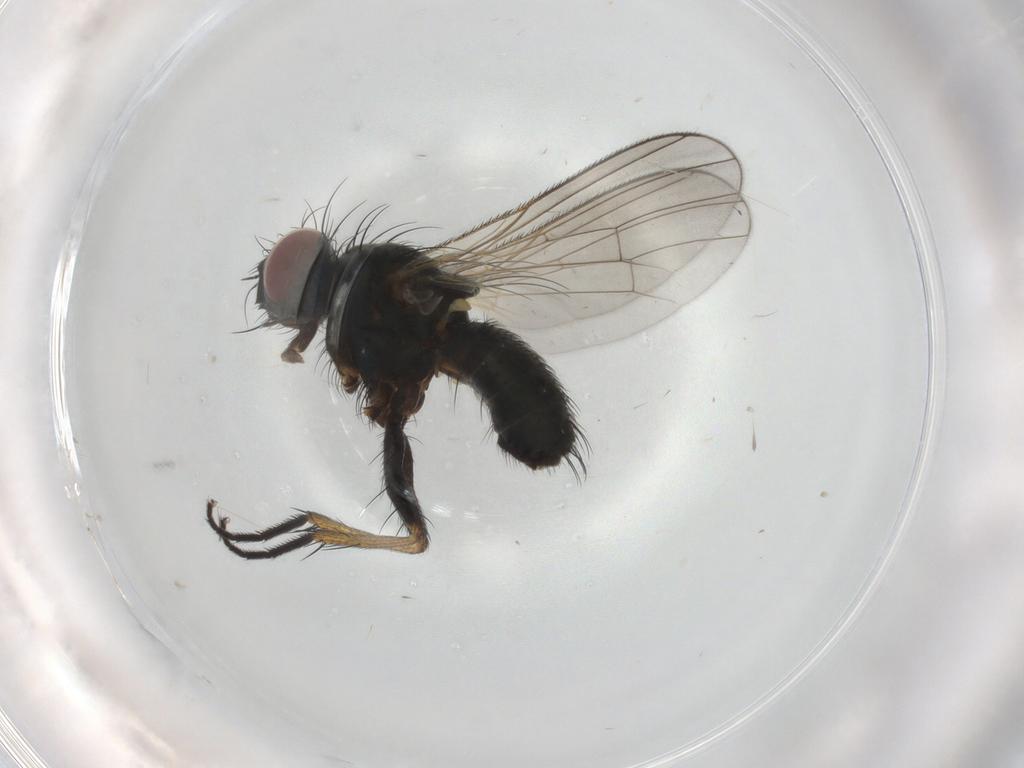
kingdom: Animalia
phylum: Arthropoda
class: Insecta
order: Diptera
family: Muscidae
